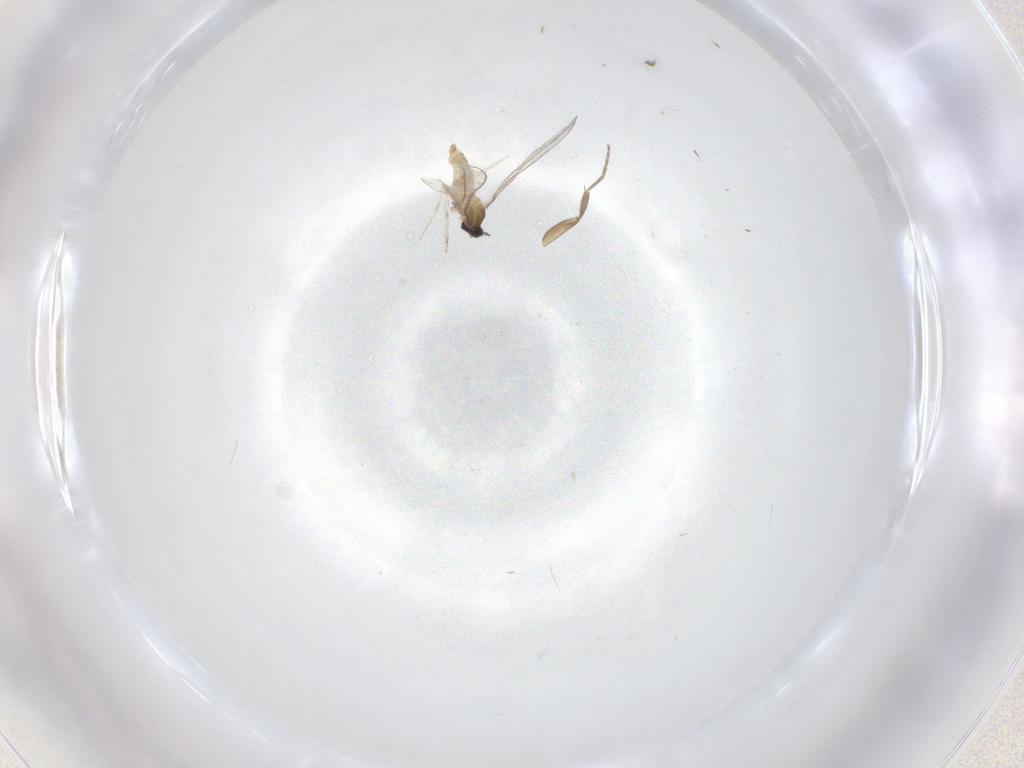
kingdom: Animalia
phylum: Arthropoda
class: Insecta
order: Diptera
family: Cecidomyiidae
